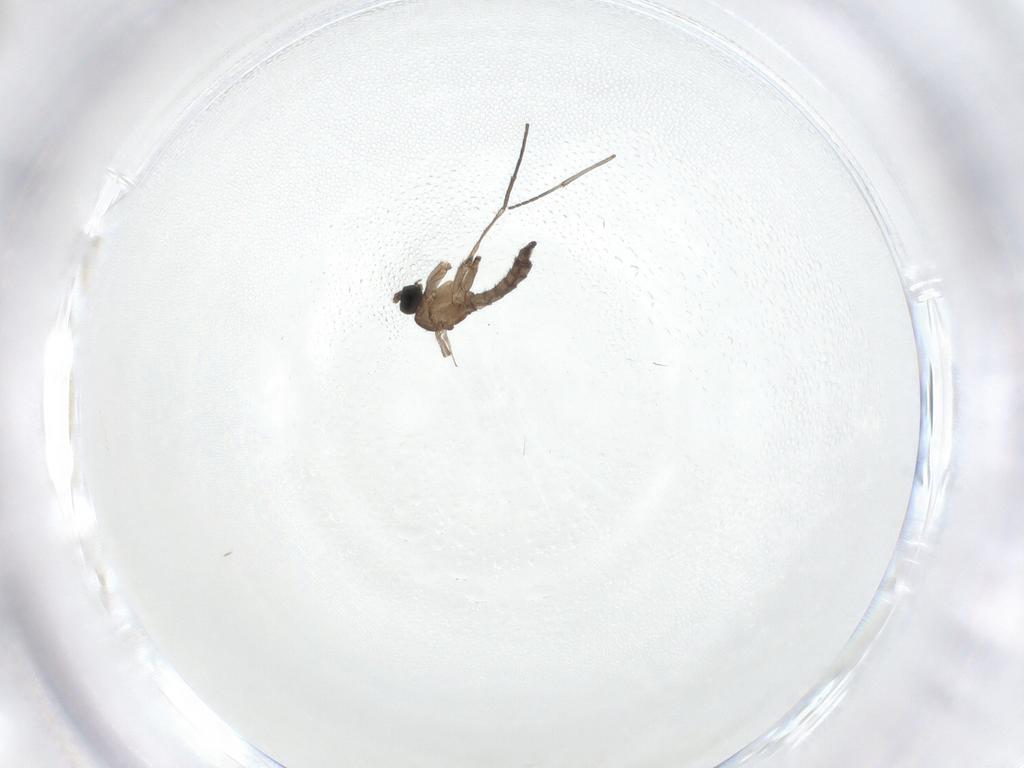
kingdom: Animalia
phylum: Arthropoda
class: Insecta
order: Diptera
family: Sciaridae
